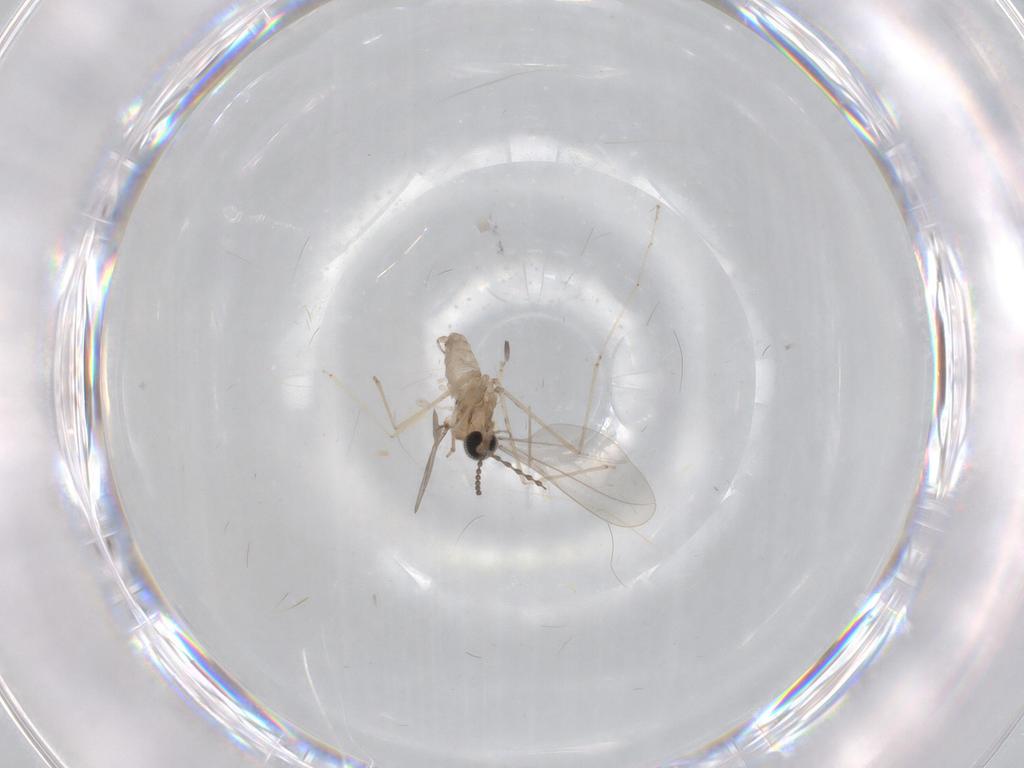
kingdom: Animalia
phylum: Arthropoda
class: Insecta
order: Diptera
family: Cecidomyiidae
